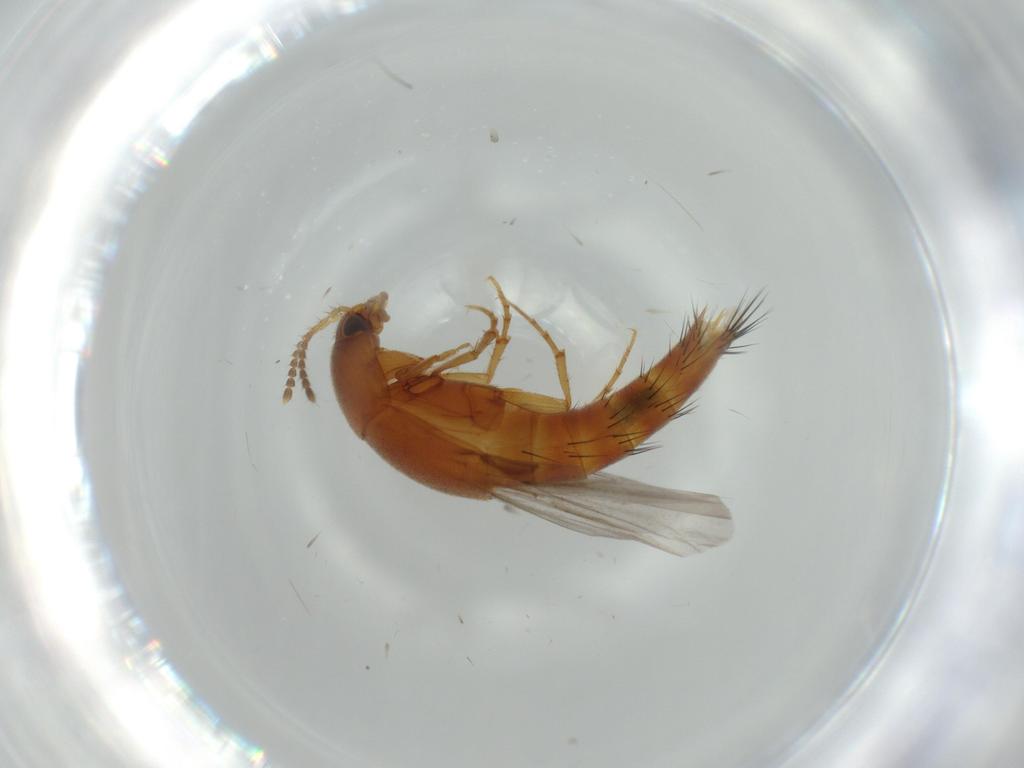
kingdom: Animalia
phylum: Arthropoda
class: Insecta
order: Coleoptera
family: Staphylinidae
